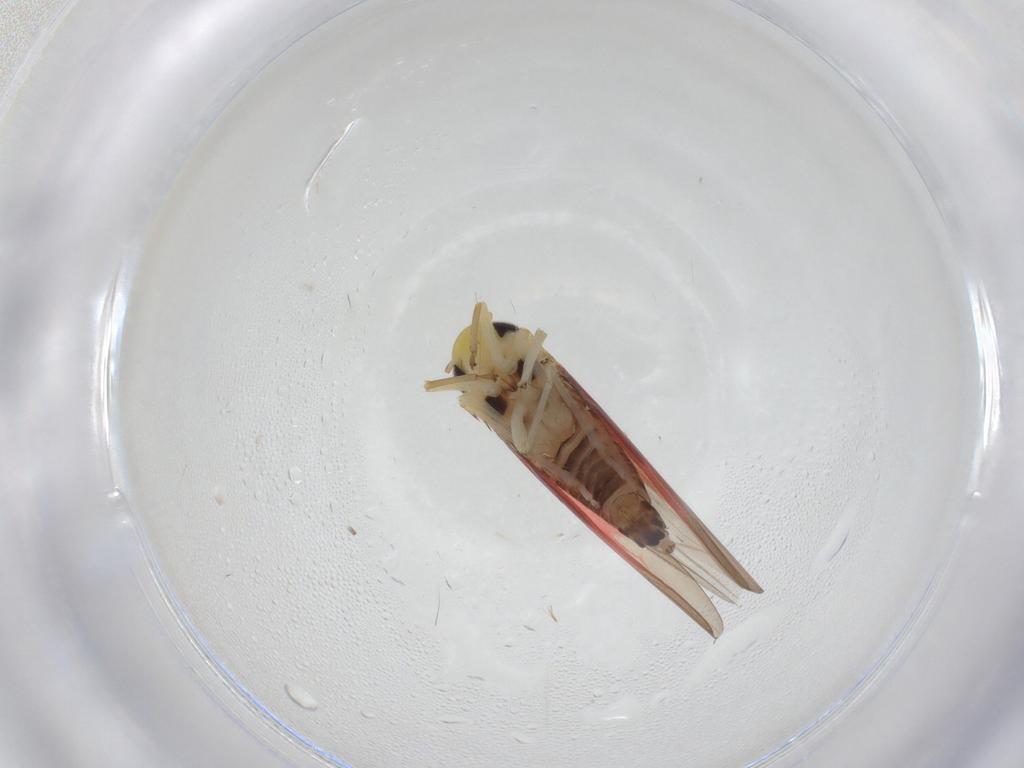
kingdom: Animalia
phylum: Arthropoda
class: Insecta
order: Hemiptera
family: Cicadellidae
